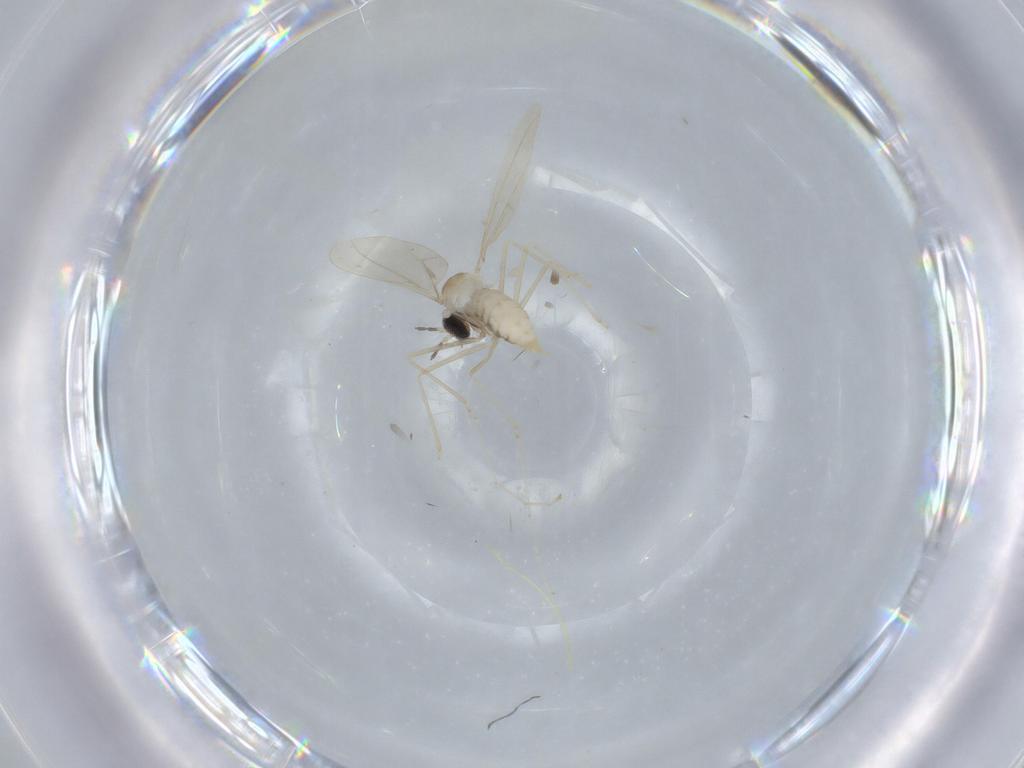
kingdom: Animalia
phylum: Arthropoda
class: Insecta
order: Diptera
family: Cecidomyiidae
